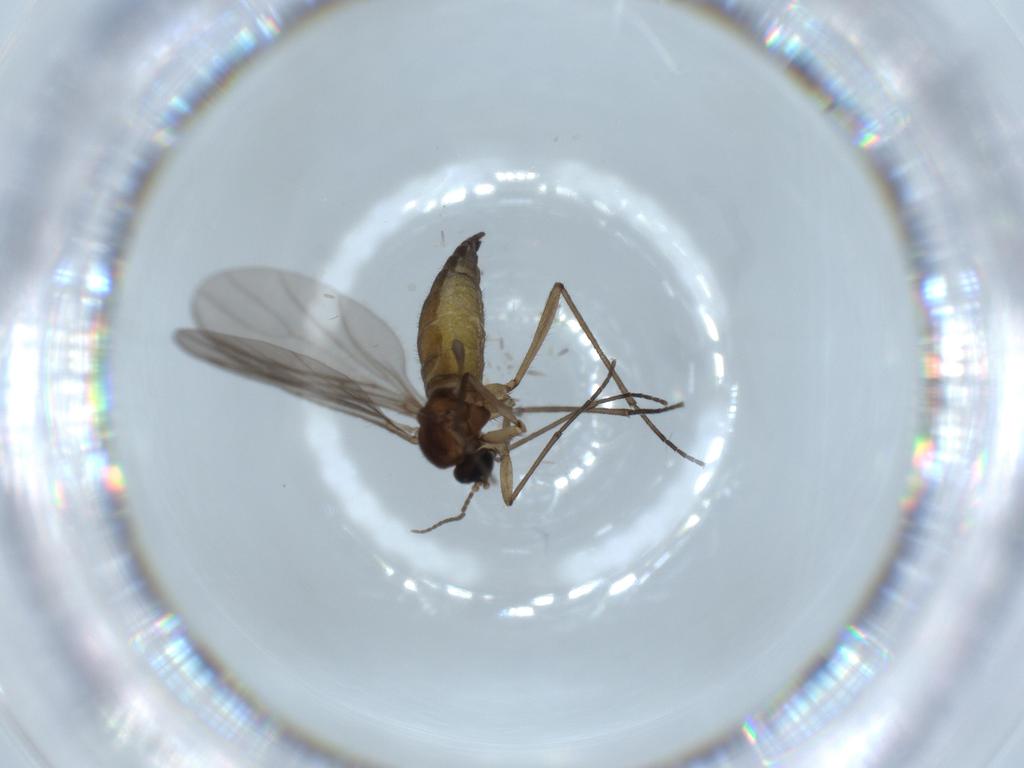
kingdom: Animalia
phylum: Arthropoda
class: Insecta
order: Diptera
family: Sciaridae
